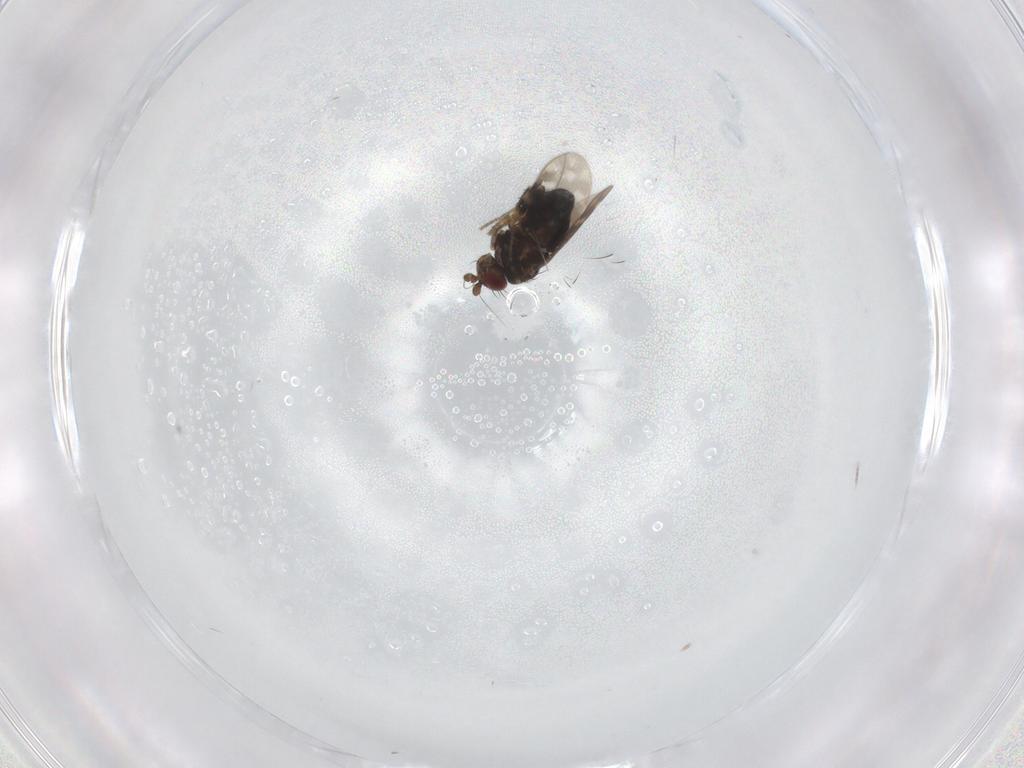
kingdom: Animalia
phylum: Arthropoda
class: Insecta
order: Diptera
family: Sphaeroceridae
